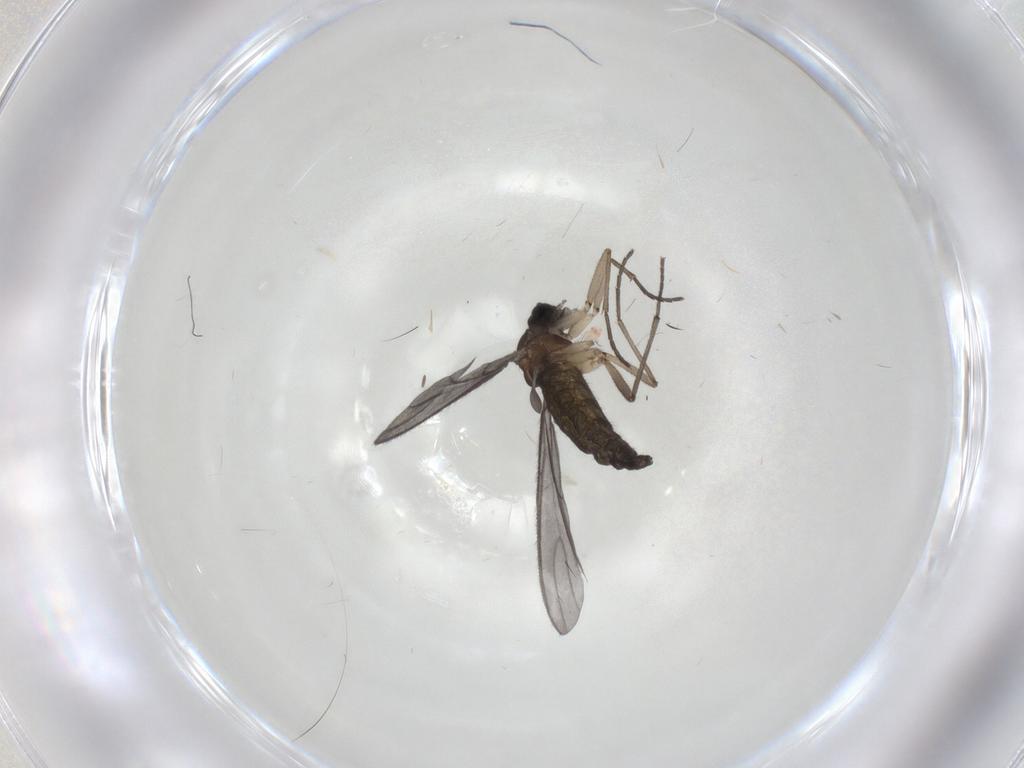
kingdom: Animalia
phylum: Arthropoda
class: Insecta
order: Diptera
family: Sciaridae
